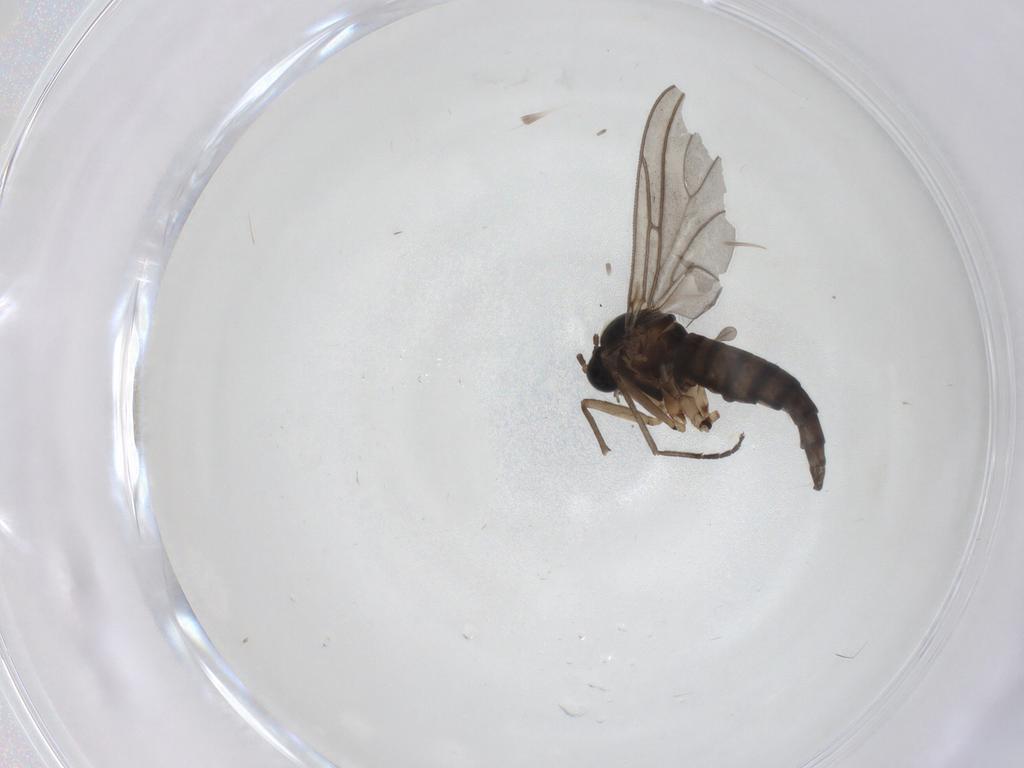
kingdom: Animalia
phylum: Arthropoda
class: Insecta
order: Diptera
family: Sciaridae
